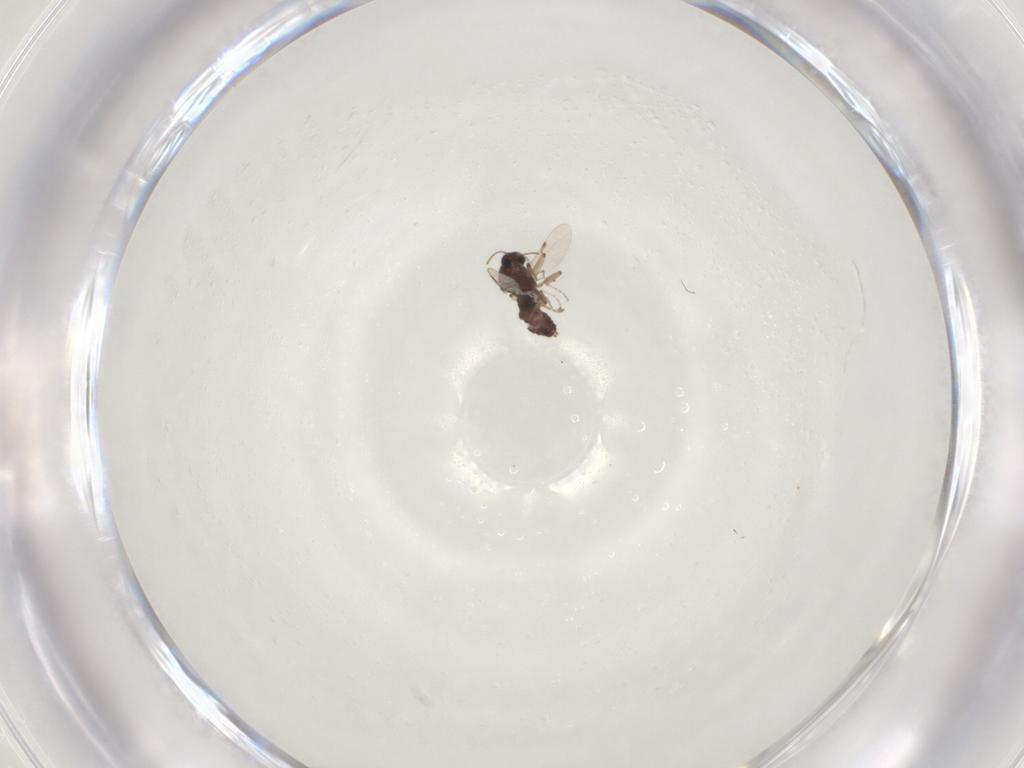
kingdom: Animalia
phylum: Arthropoda
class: Insecta
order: Diptera
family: Ceratopogonidae
